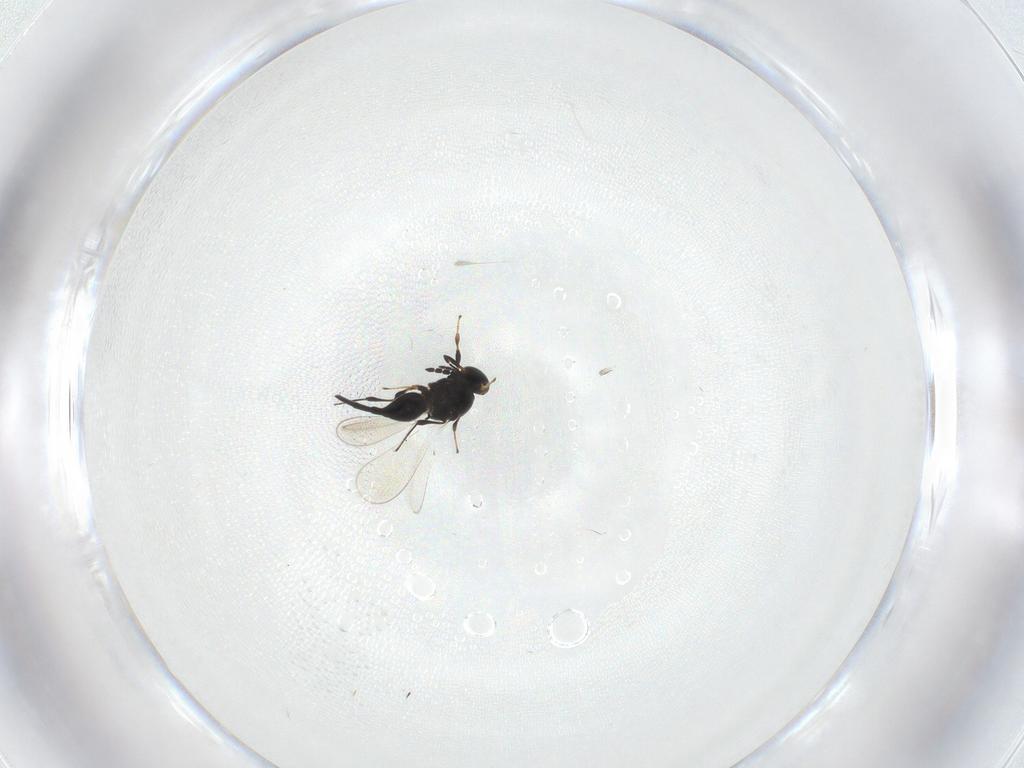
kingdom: Animalia
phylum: Arthropoda
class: Insecta
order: Hymenoptera
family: Platygastridae
